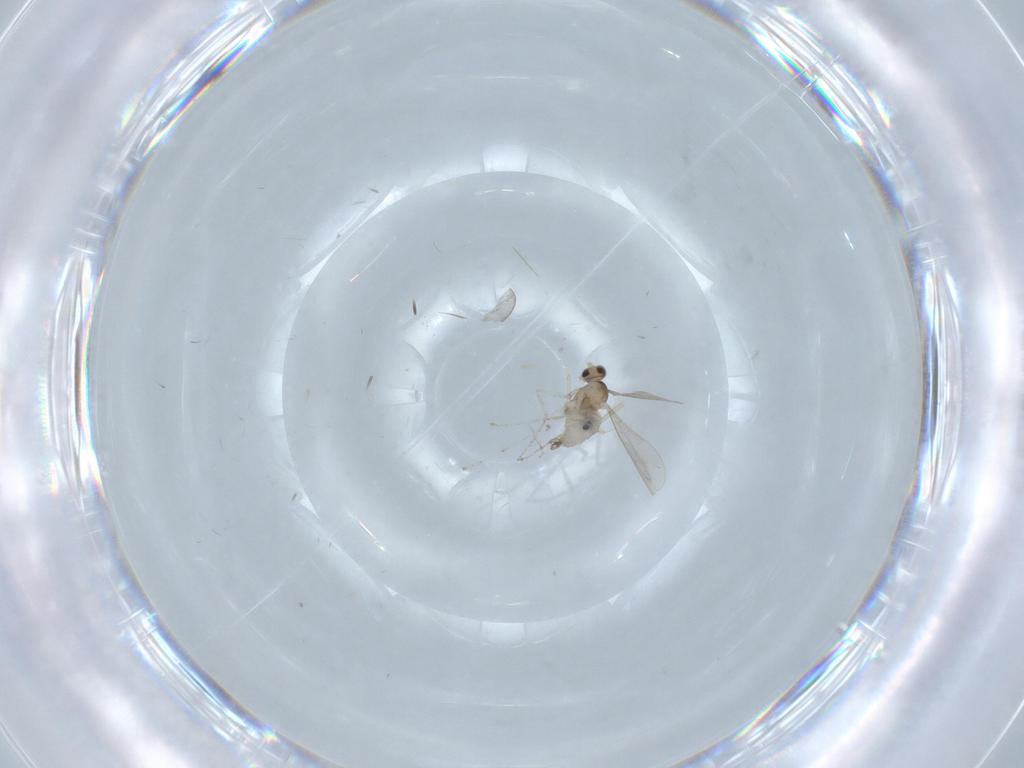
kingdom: Animalia
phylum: Arthropoda
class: Insecta
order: Diptera
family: Cecidomyiidae
